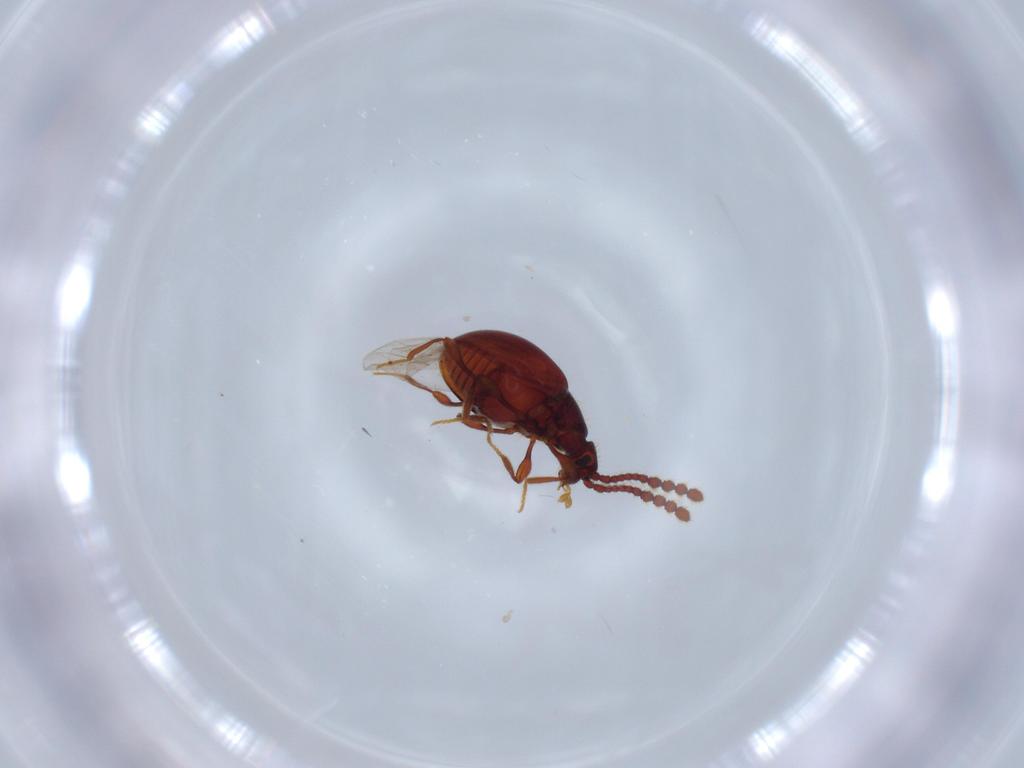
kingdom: Animalia
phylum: Arthropoda
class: Insecta
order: Coleoptera
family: Staphylinidae
